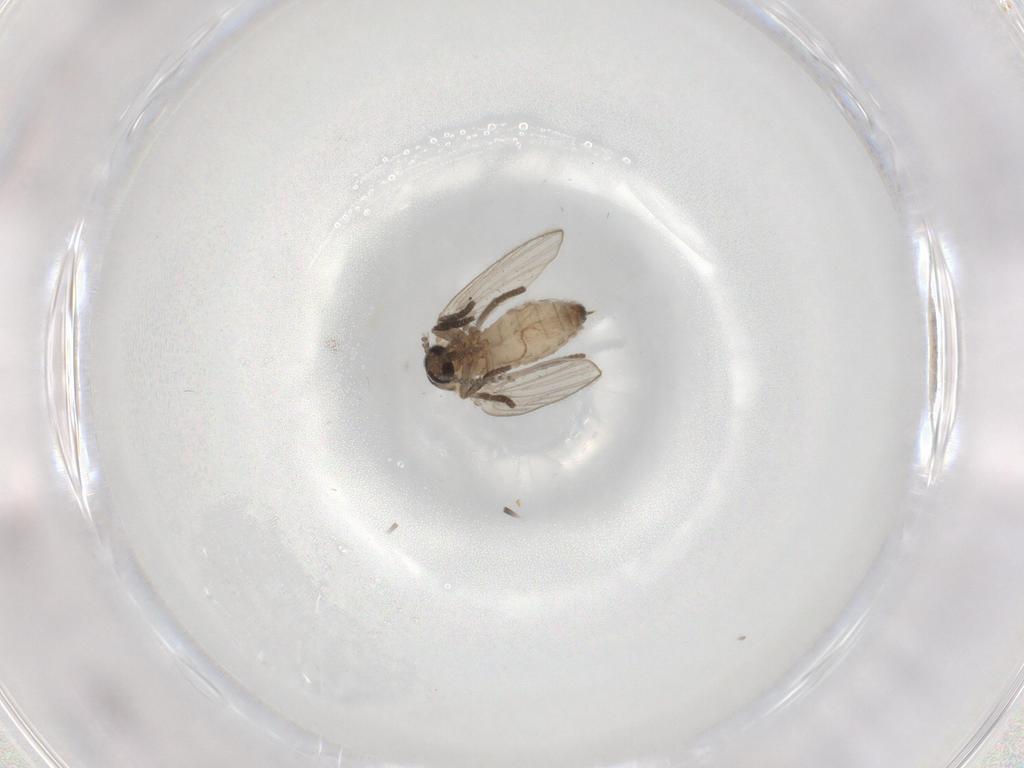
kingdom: Animalia
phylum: Arthropoda
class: Insecta
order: Diptera
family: Psychodidae
